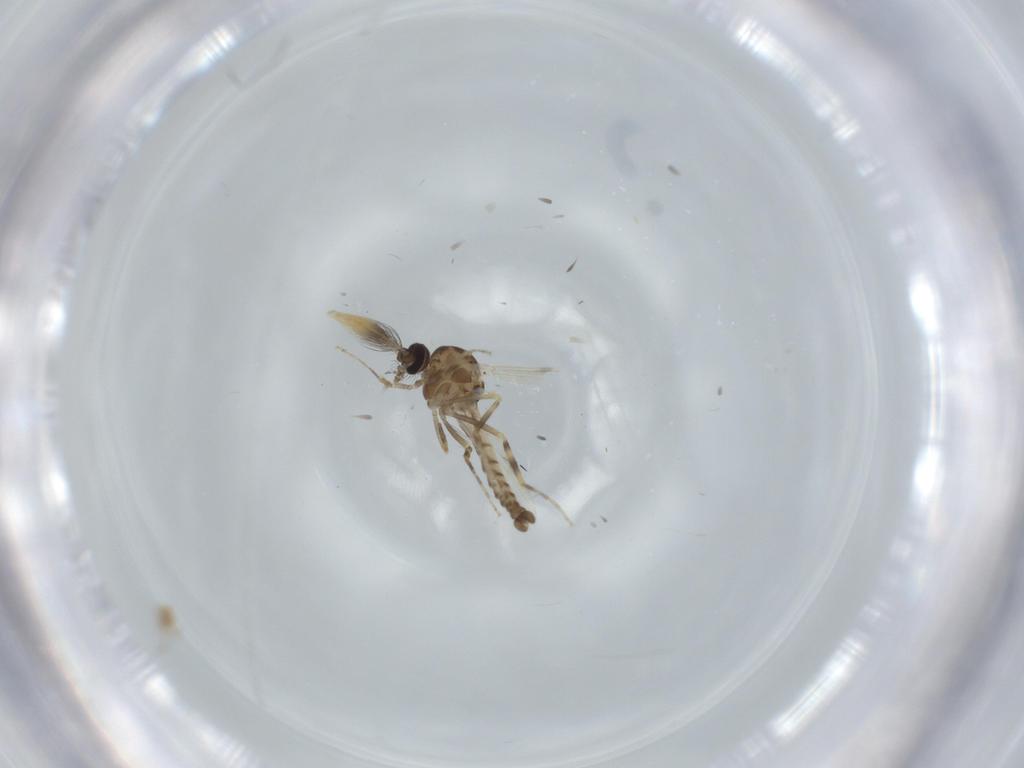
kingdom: Animalia
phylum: Arthropoda
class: Insecta
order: Diptera
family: Ceratopogonidae
